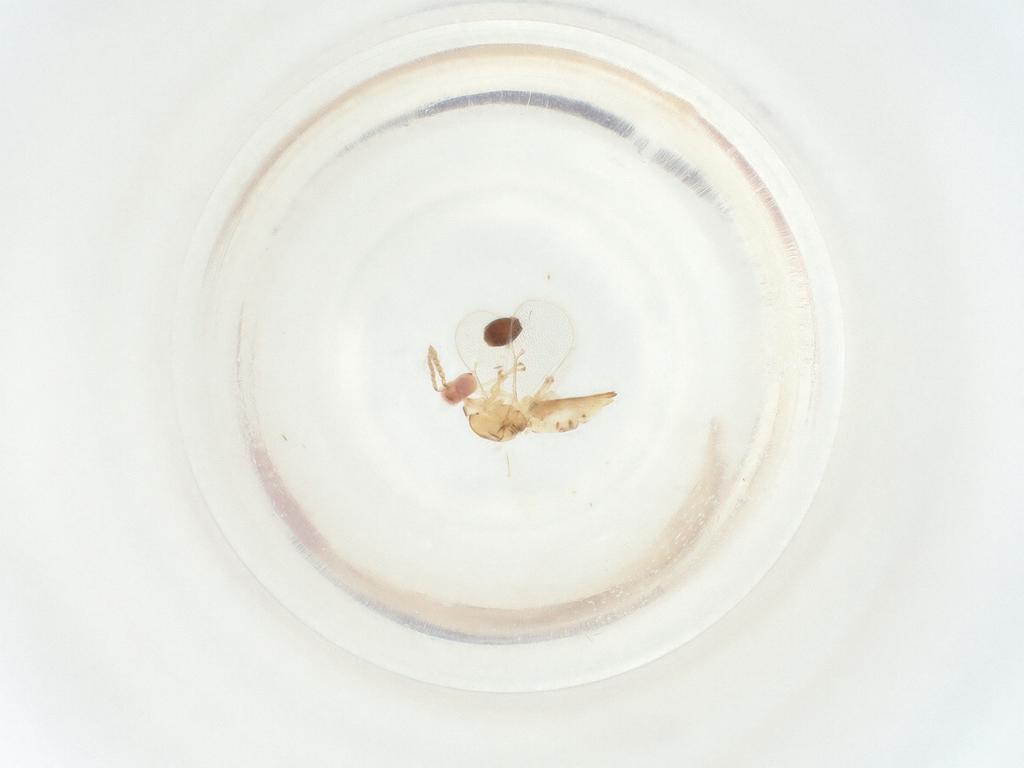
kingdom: Animalia
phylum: Arthropoda
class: Insecta
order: Hymenoptera
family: Eulophidae
